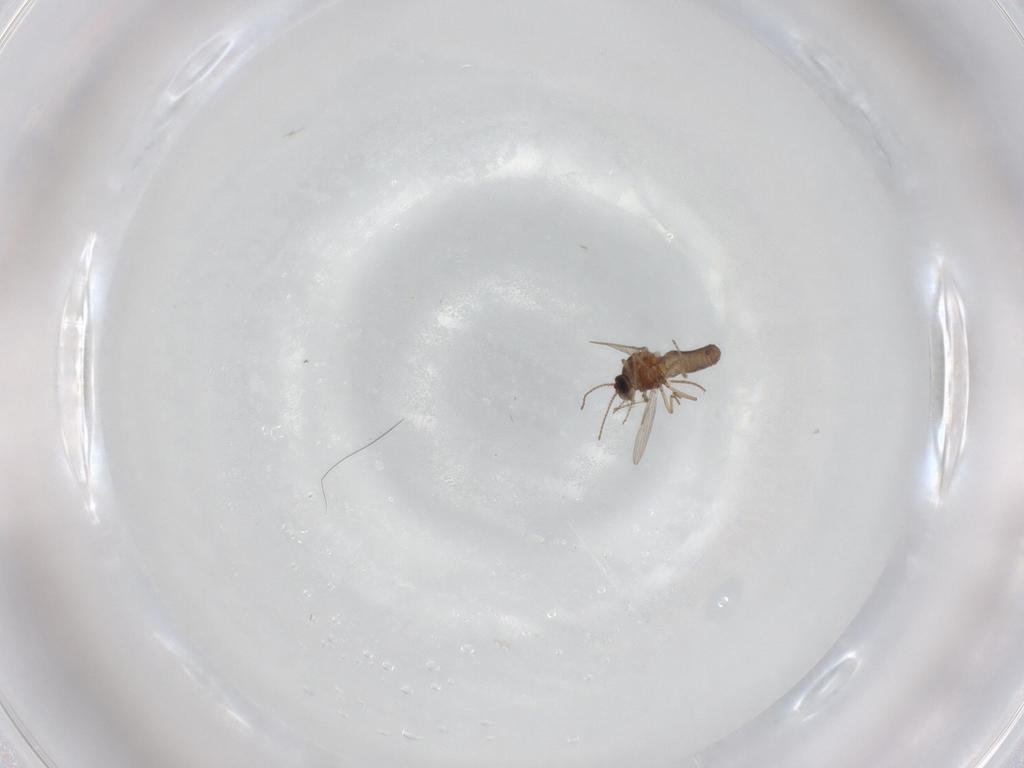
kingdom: Animalia
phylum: Arthropoda
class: Insecta
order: Diptera
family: Ceratopogonidae
